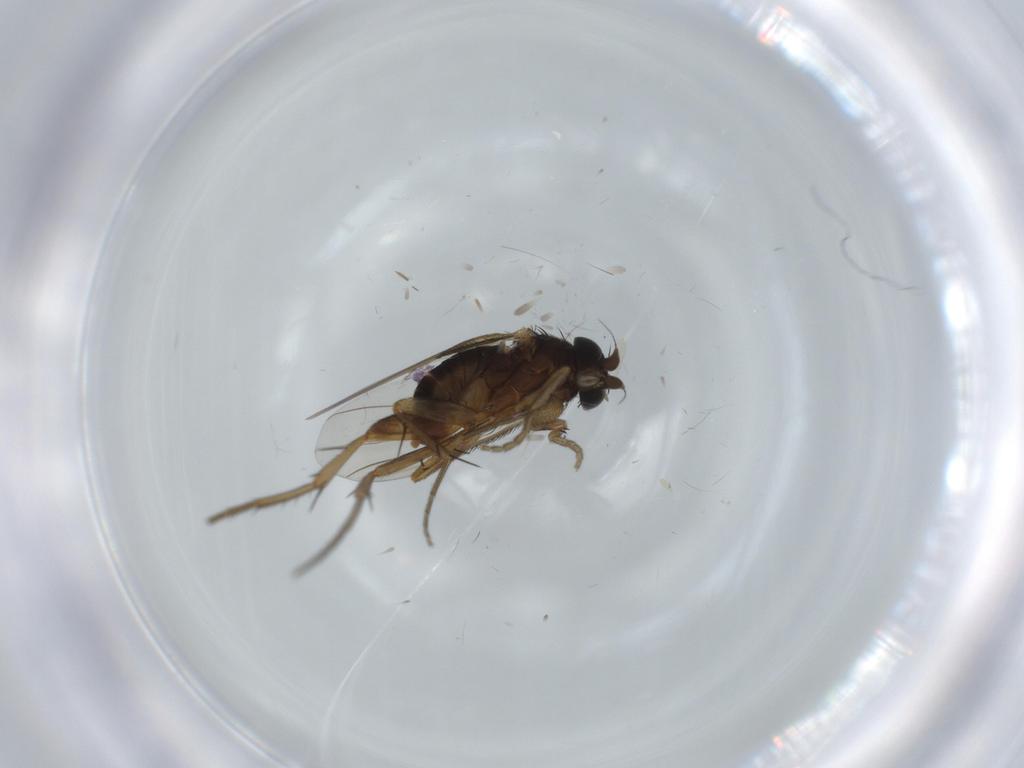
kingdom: Animalia
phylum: Arthropoda
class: Insecta
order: Diptera
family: Phoridae
